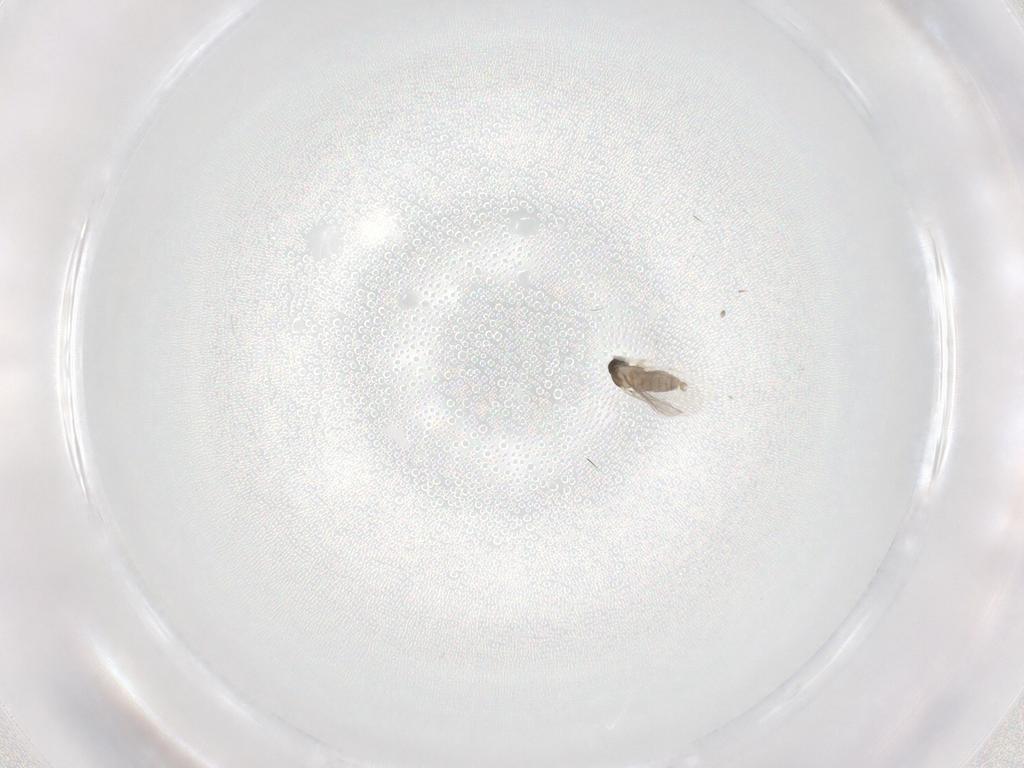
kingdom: Animalia
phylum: Arthropoda
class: Insecta
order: Diptera
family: Cecidomyiidae
